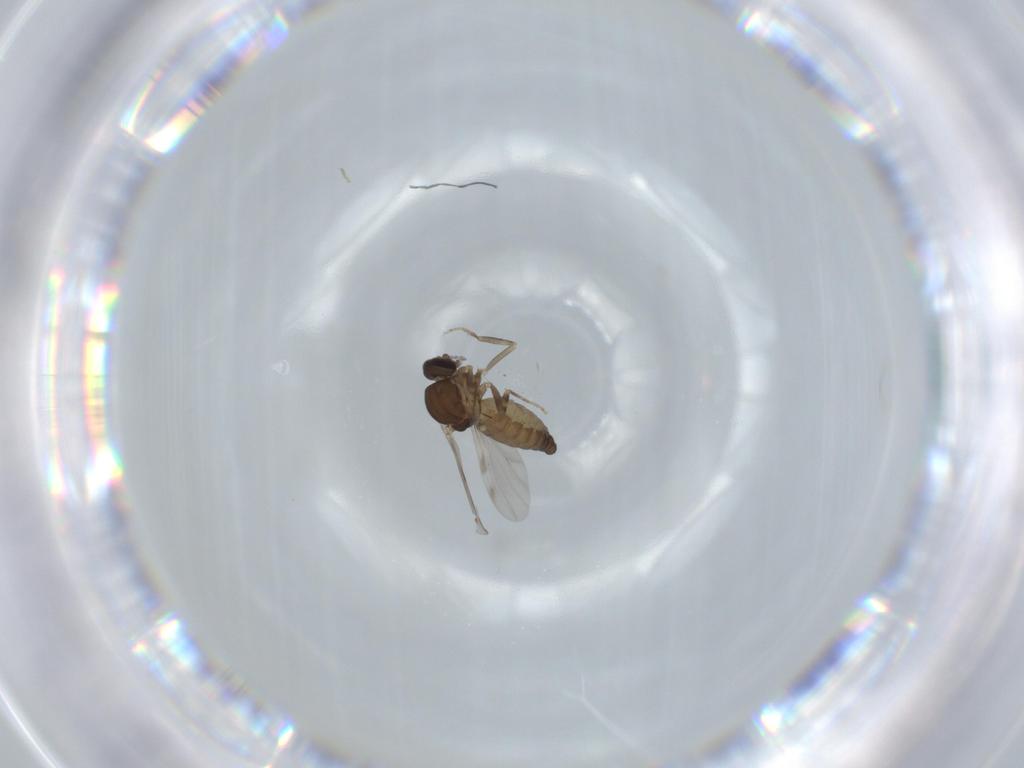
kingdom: Animalia
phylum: Arthropoda
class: Insecta
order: Diptera
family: Ceratopogonidae
